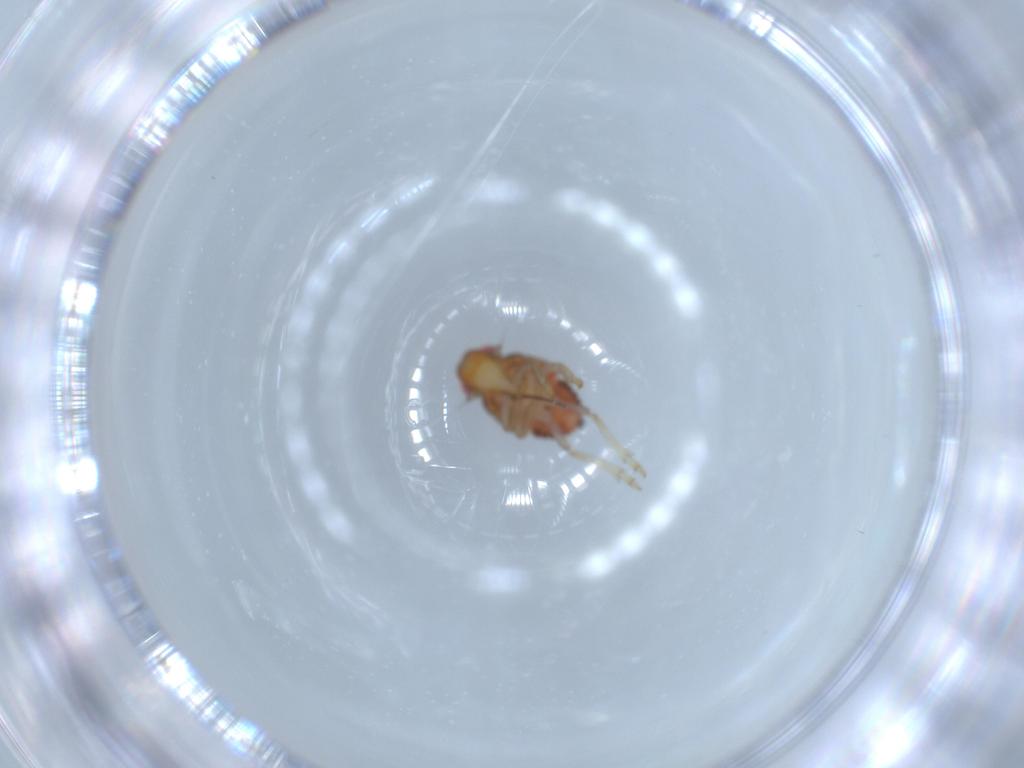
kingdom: Animalia
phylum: Arthropoda
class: Insecta
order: Hemiptera
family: Issidae
